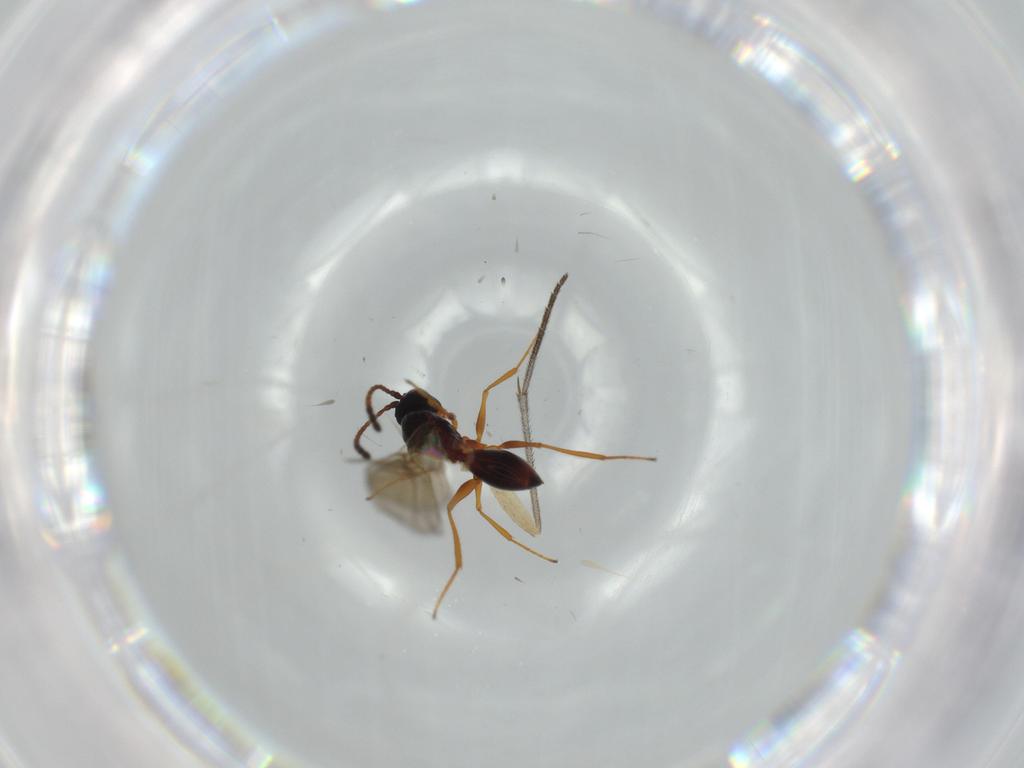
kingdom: Animalia
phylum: Arthropoda
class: Insecta
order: Hymenoptera
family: Figitidae
